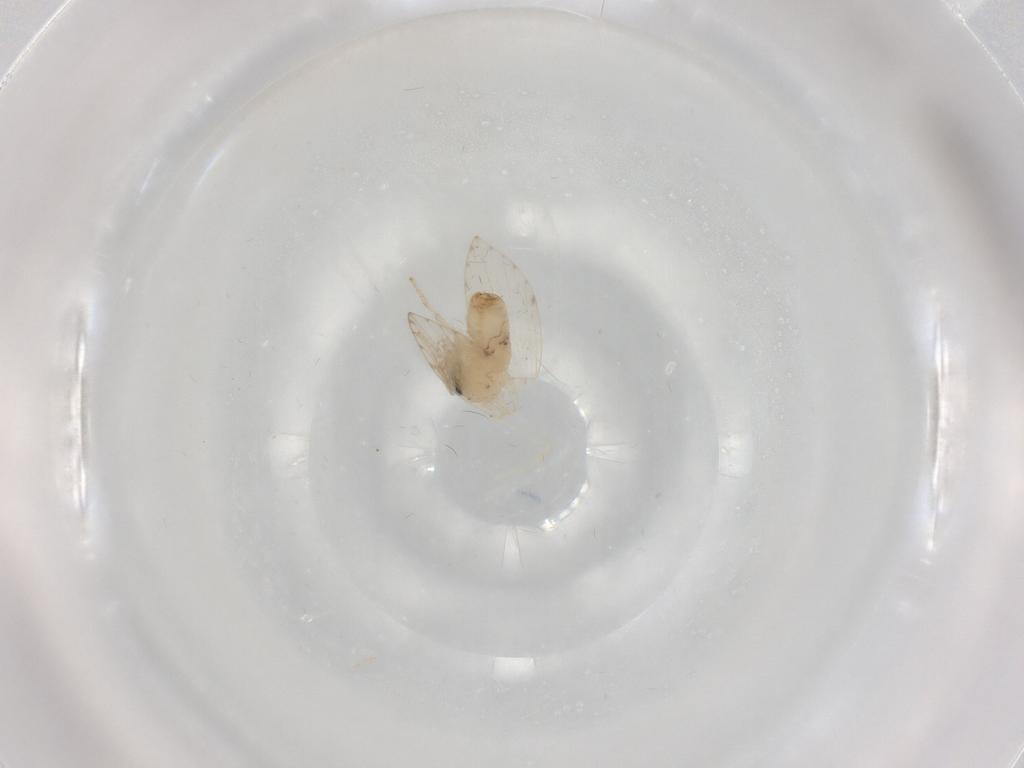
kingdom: Animalia
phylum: Arthropoda
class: Insecta
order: Diptera
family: Psychodidae
